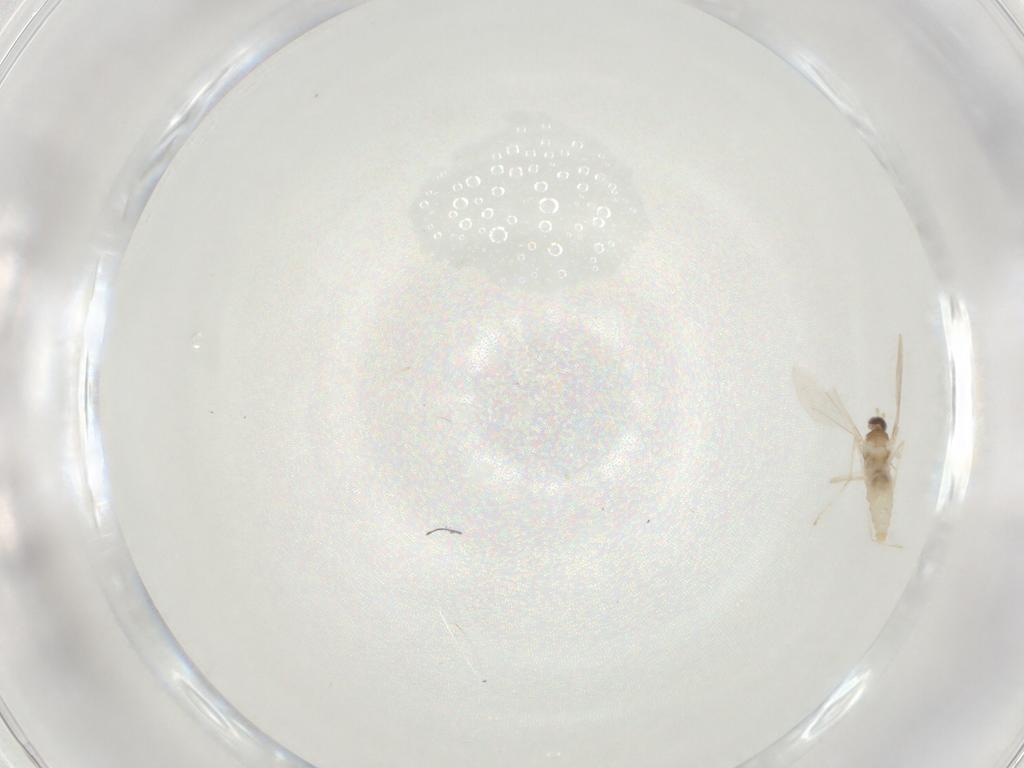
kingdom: Animalia
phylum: Arthropoda
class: Insecta
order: Diptera
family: Cecidomyiidae
